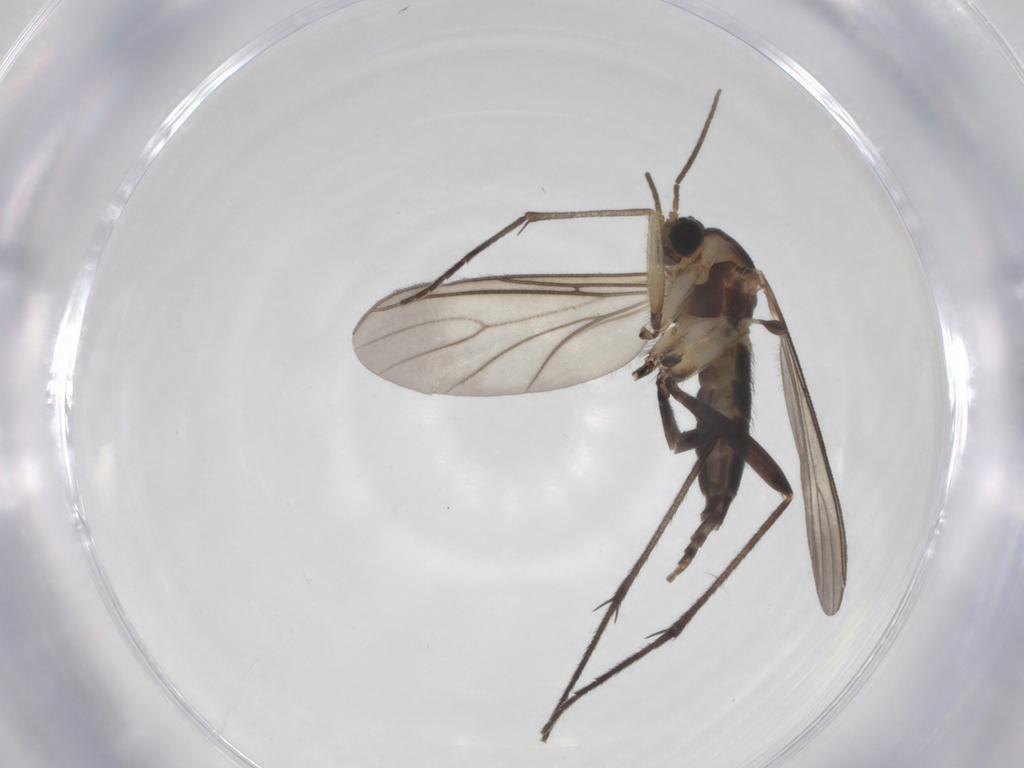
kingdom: Animalia
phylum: Arthropoda
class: Insecta
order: Diptera
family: Sciaridae
